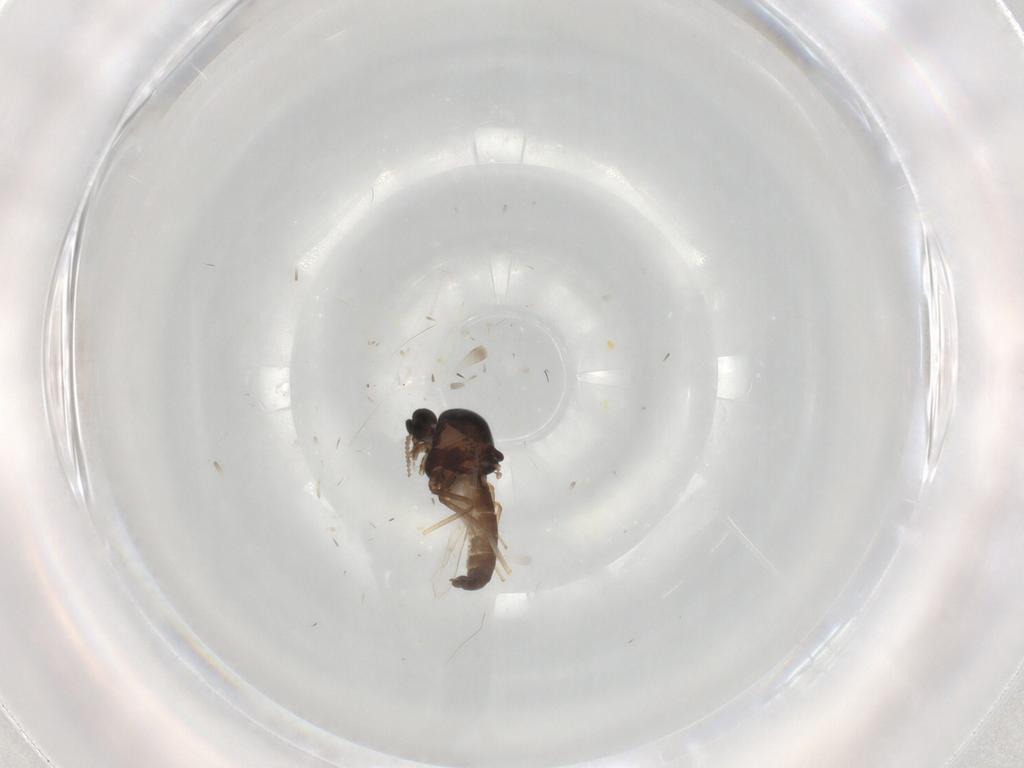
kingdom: Animalia
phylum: Arthropoda
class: Insecta
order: Diptera
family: Ceratopogonidae
